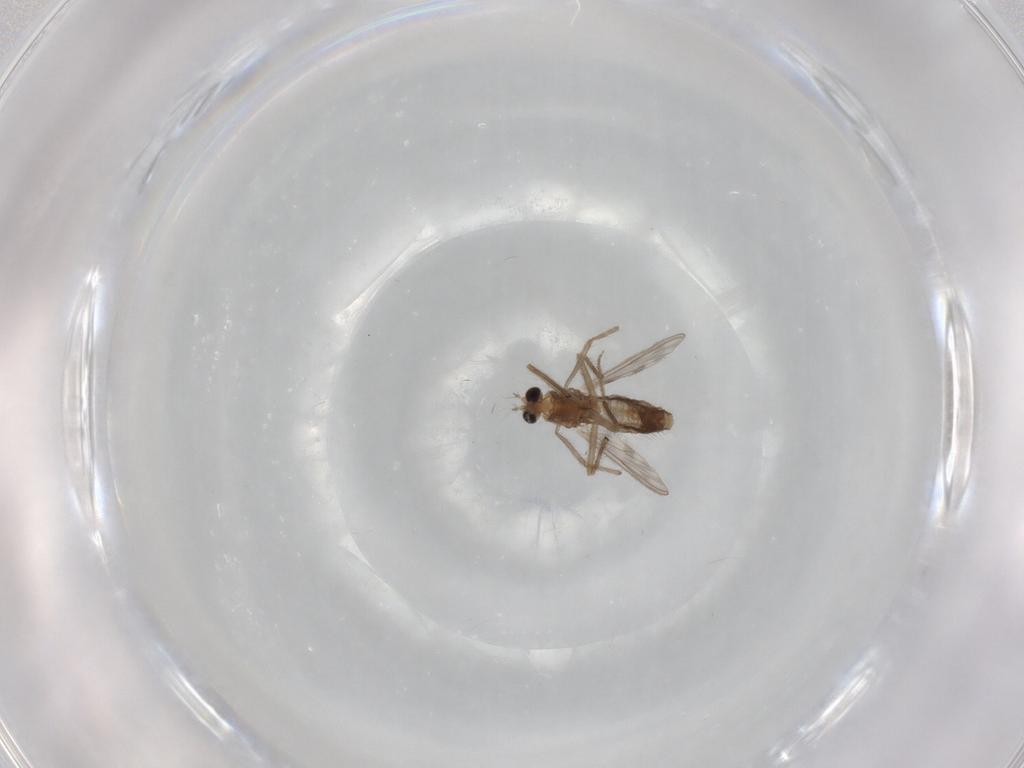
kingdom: Animalia
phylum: Arthropoda
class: Insecta
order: Diptera
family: Chironomidae
